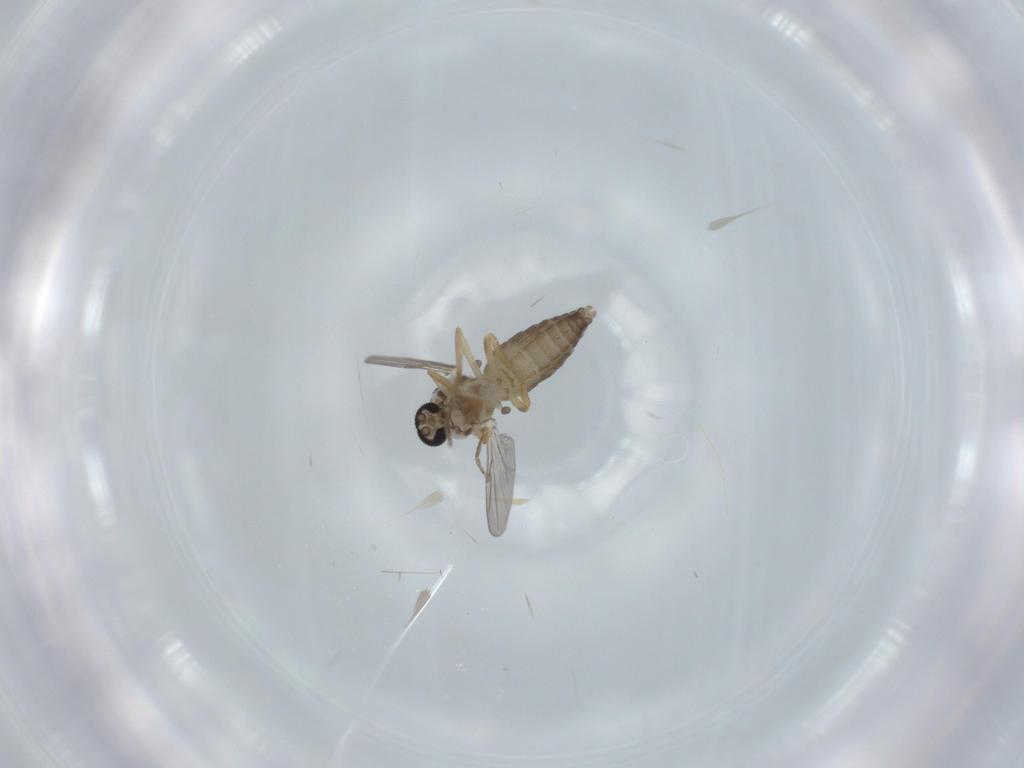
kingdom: Animalia
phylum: Arthropoda
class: Insecta
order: Diptera
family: Ceratopogonidae
